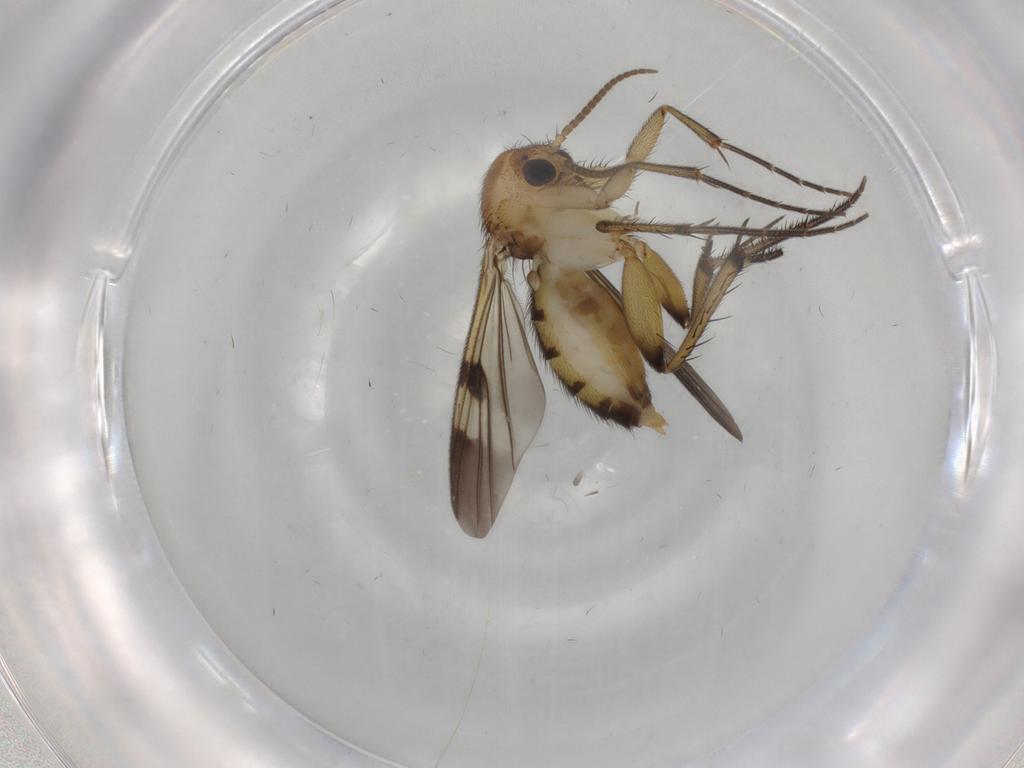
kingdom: Animalia
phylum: Arthropoda
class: Insecta
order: Diptera
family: Mycetophilidae
